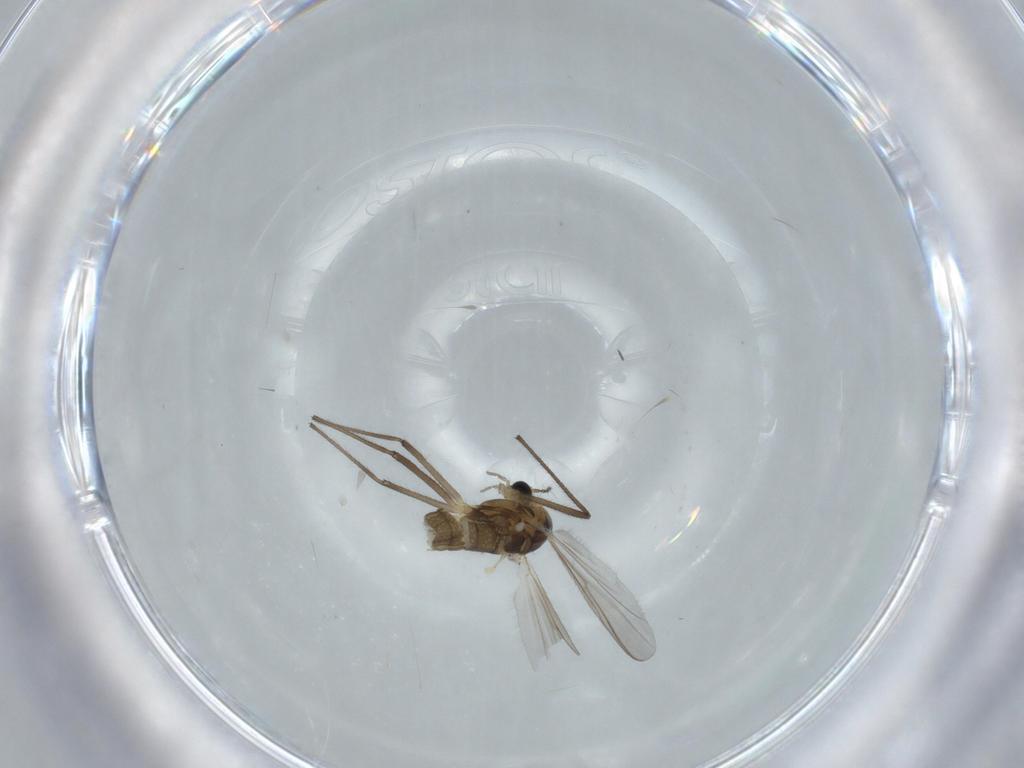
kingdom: Animalia
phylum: Arthropoda
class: Insecta
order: Diptera
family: Chironomidae
